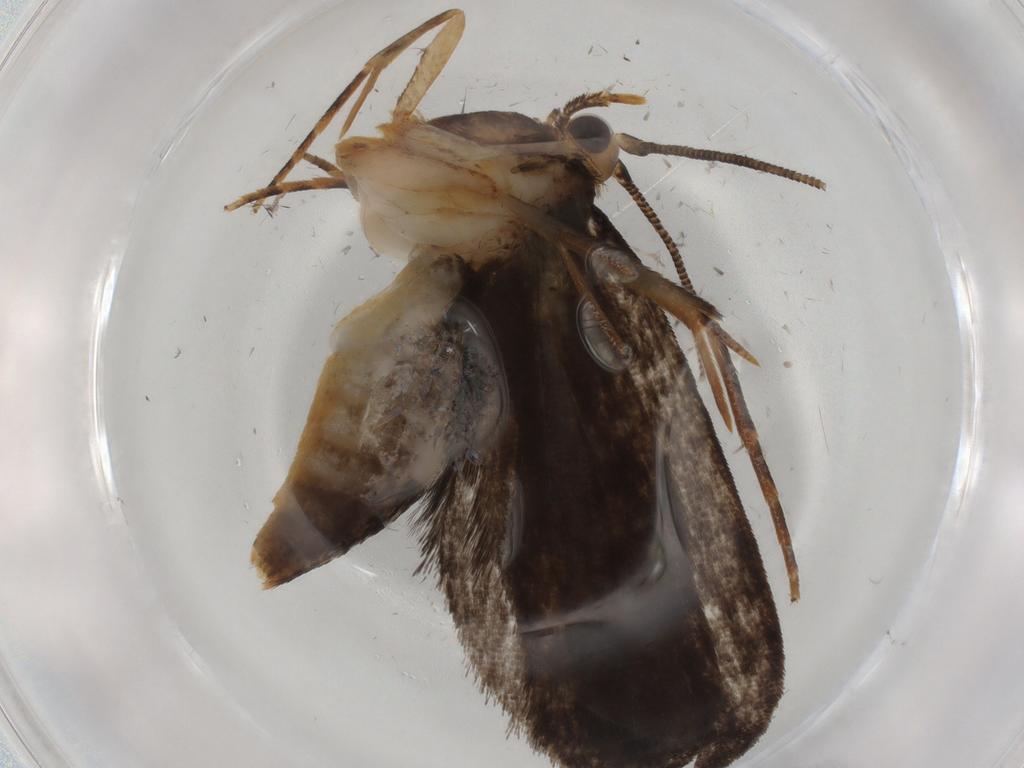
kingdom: Animalia
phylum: Arthropoda
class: Insecta
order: Lepidoptera
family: Tineidae
